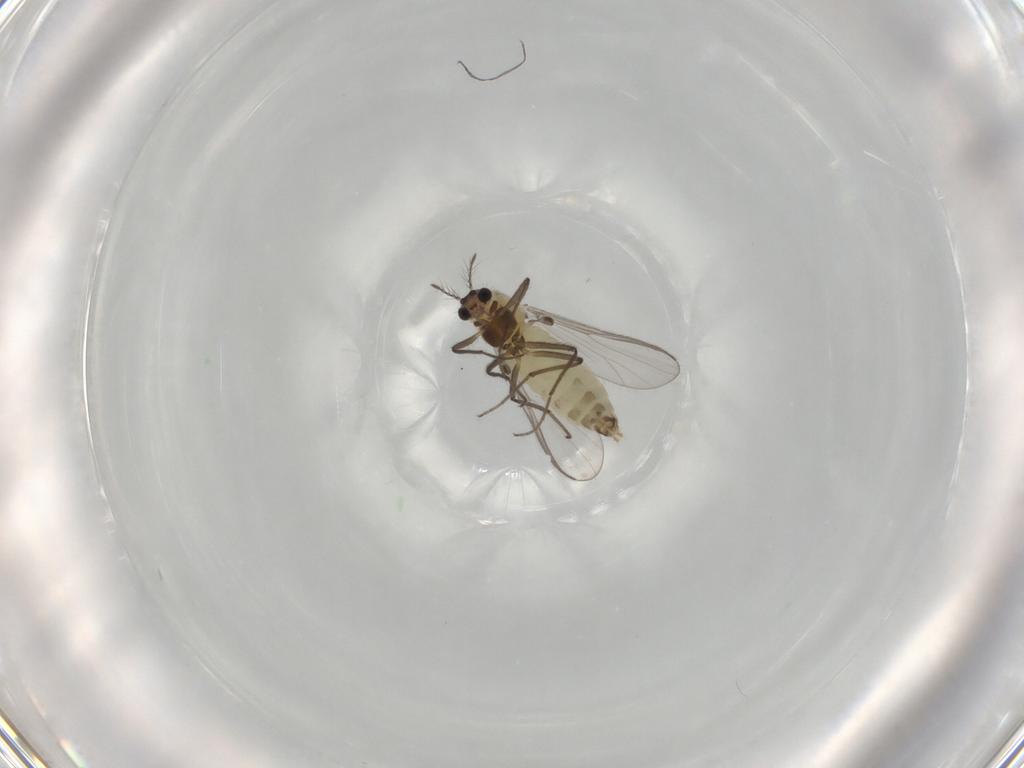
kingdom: Animalia
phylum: Arthropoda
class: Insecta
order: Diptera
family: Chironomidae
